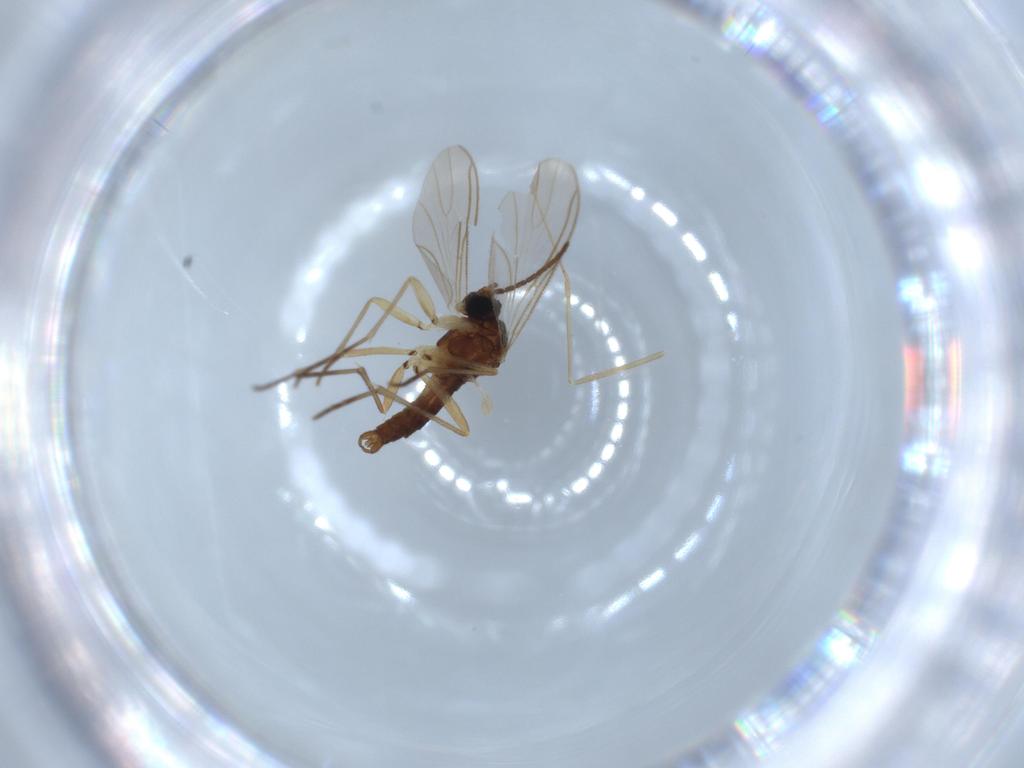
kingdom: Animalia
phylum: Arthropoda
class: Insecta
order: Diptera
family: Sciaridae
